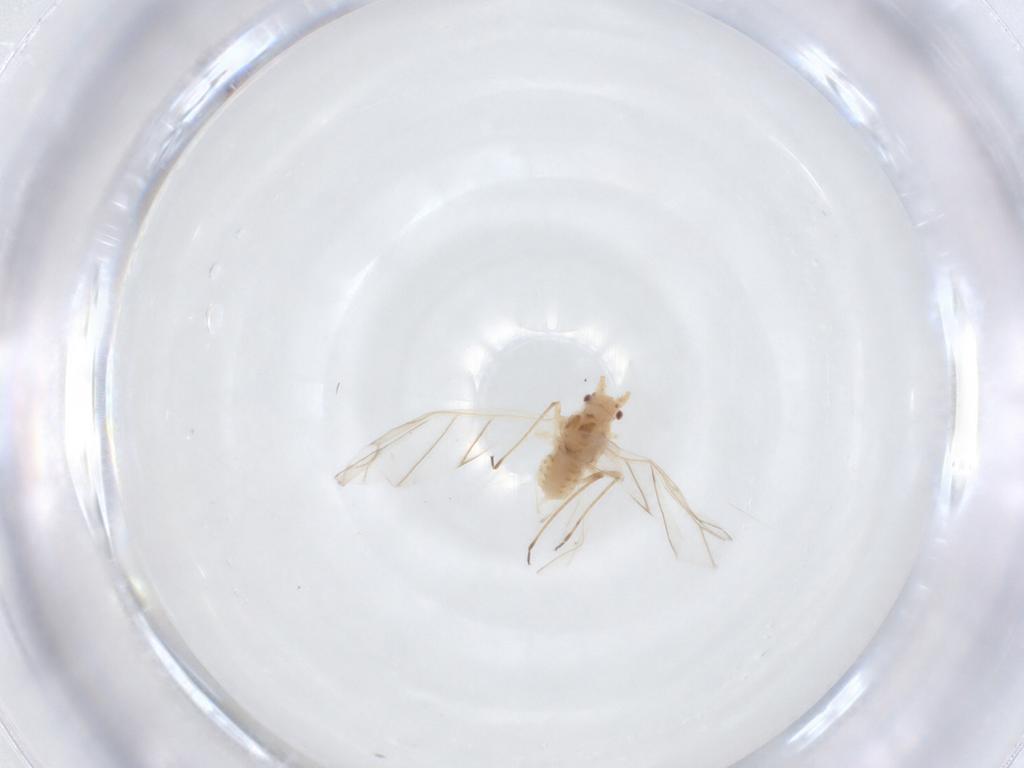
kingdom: Animalia
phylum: Arthropoda
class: Insecta
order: Hemiptera
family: Aphididae
